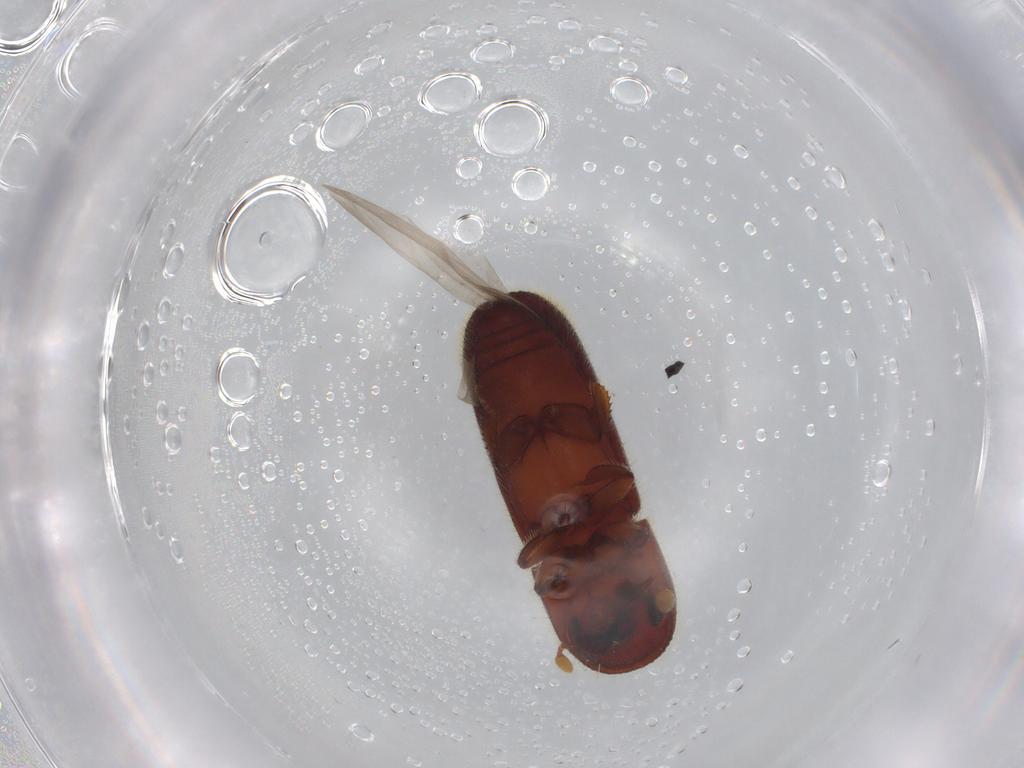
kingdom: Animalia
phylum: Arthropoda
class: Insecta
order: Coleoptera
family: Curculionidae
